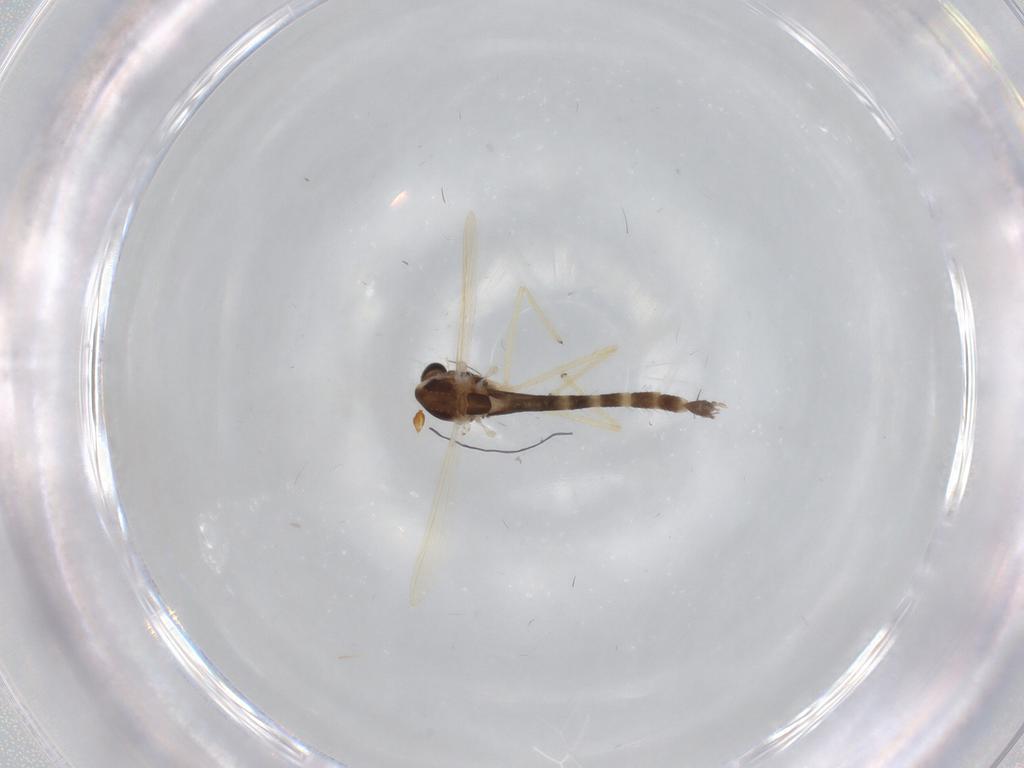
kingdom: Animalia
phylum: Arthropoda
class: Insecta
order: Diptera
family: Chironomidae
